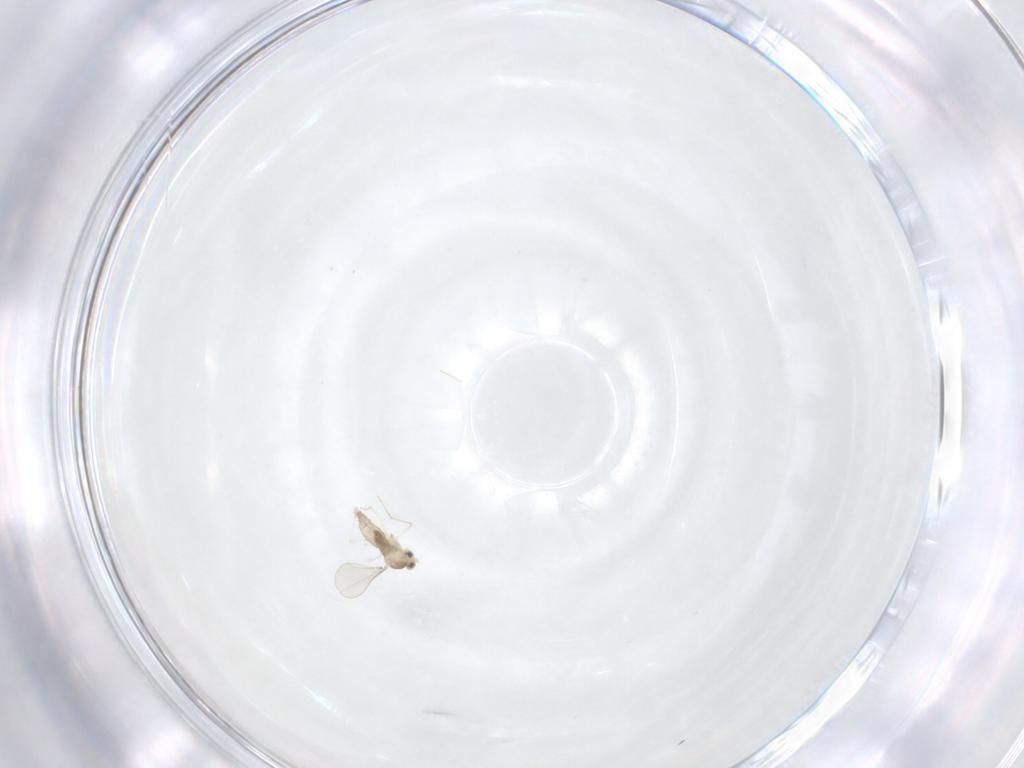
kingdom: Animalia
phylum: Arthropoda
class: Insecta
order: Diptera
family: Cecidomyiidae
